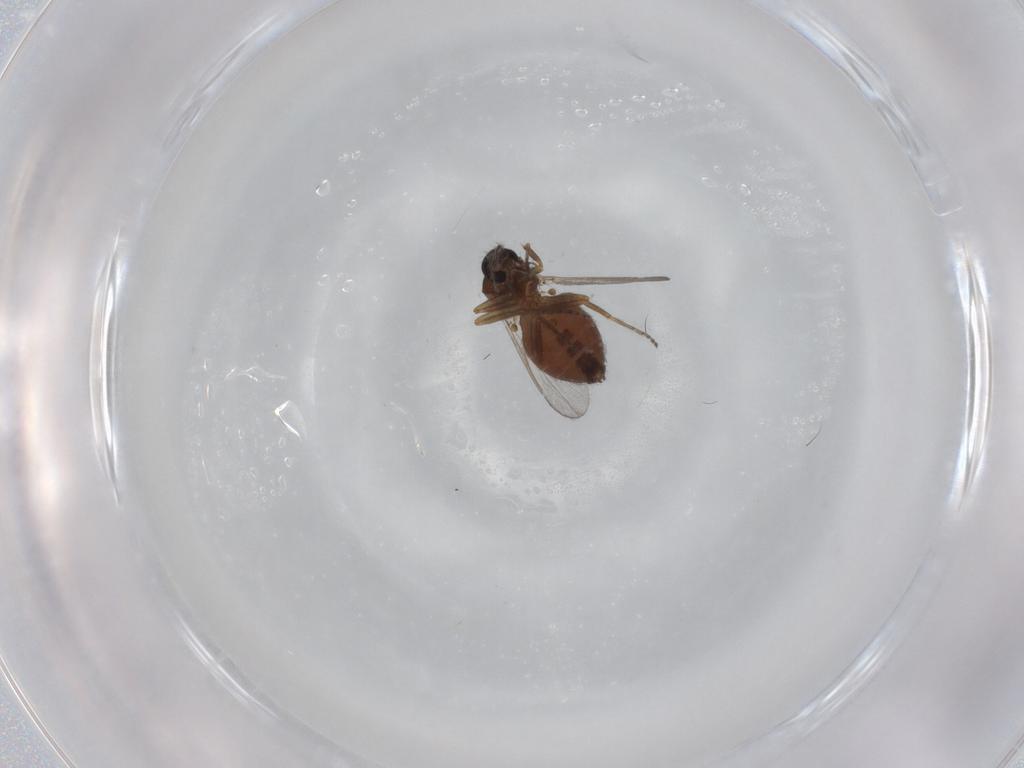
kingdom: Animalia
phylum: Arthropoda
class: Insecta
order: Diptera
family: Ceratopogonidae
